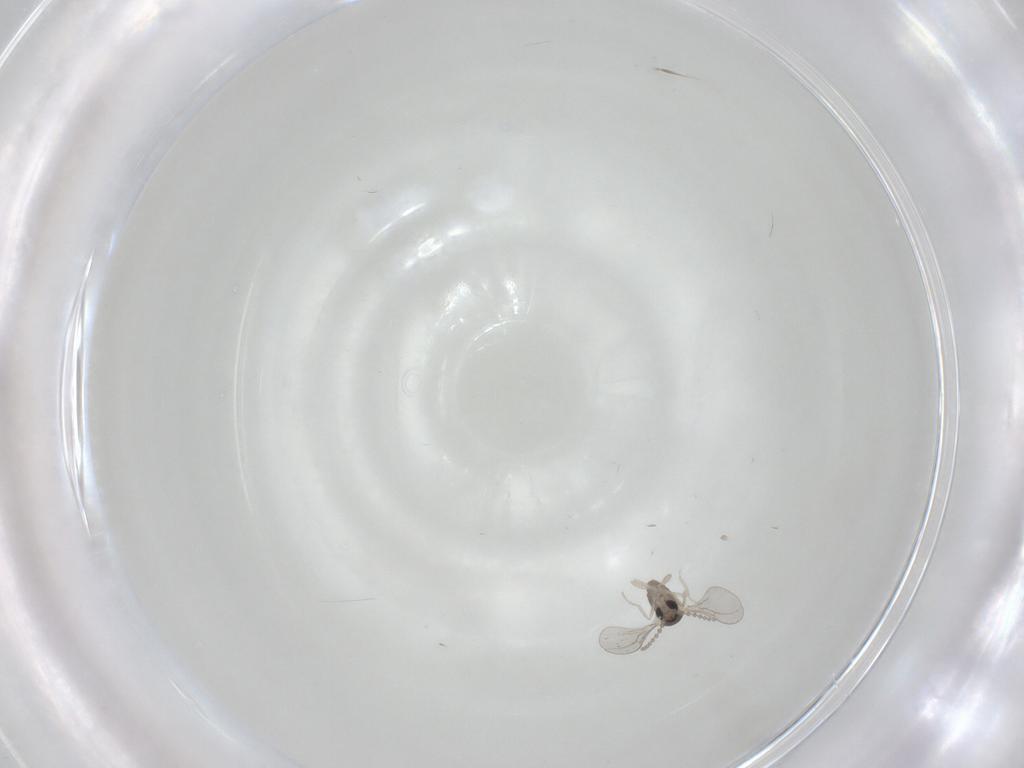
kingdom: Animalia
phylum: Arthropoda
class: Insecta
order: Diptera
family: Chironomidae
